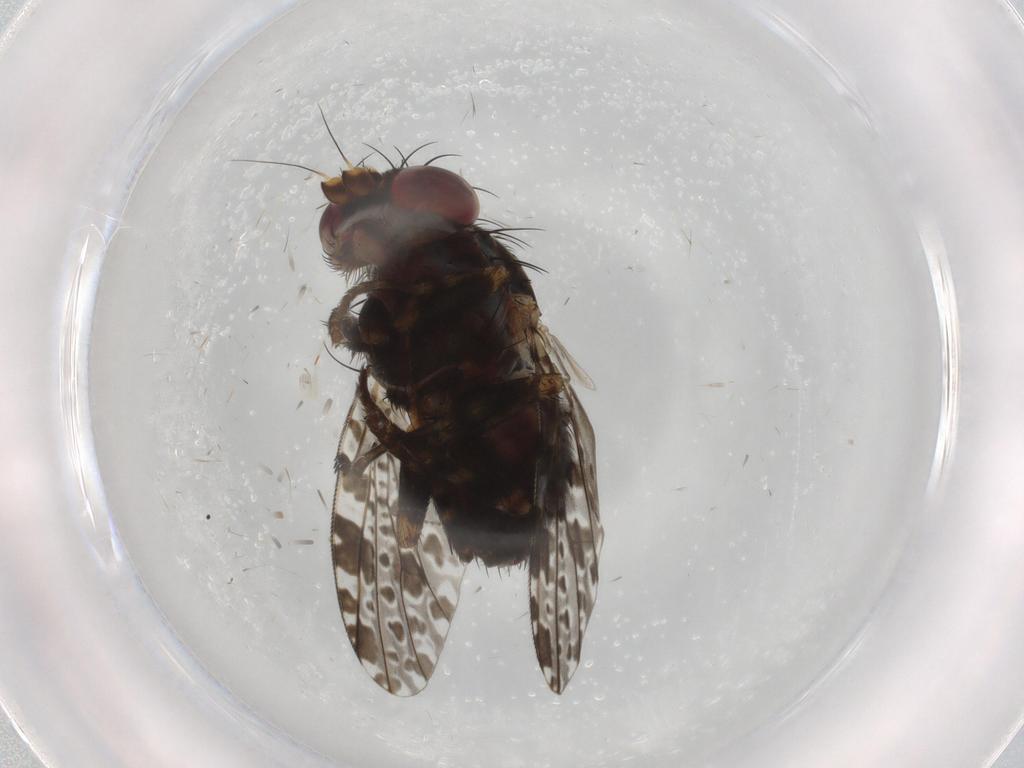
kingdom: Animalia
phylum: Arthropoda
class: Insecta
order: Diptera
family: Odiniidae
